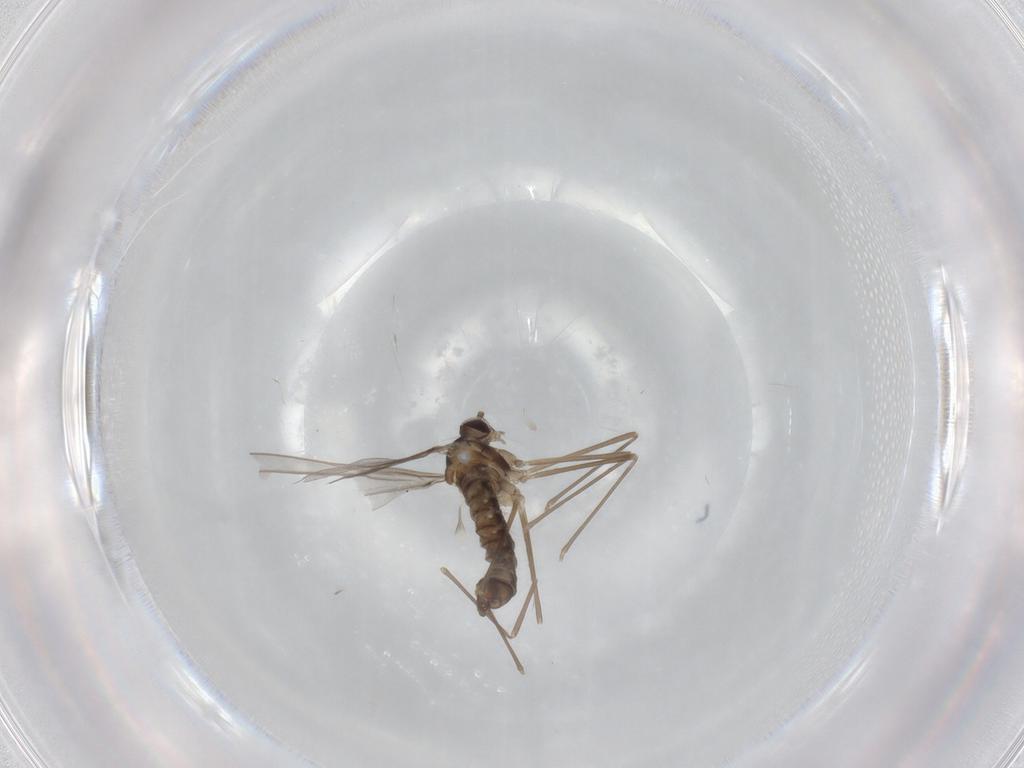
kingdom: Animalia
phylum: Arthropoda
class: Insecta
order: Diptera
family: Cecidomyiidae
